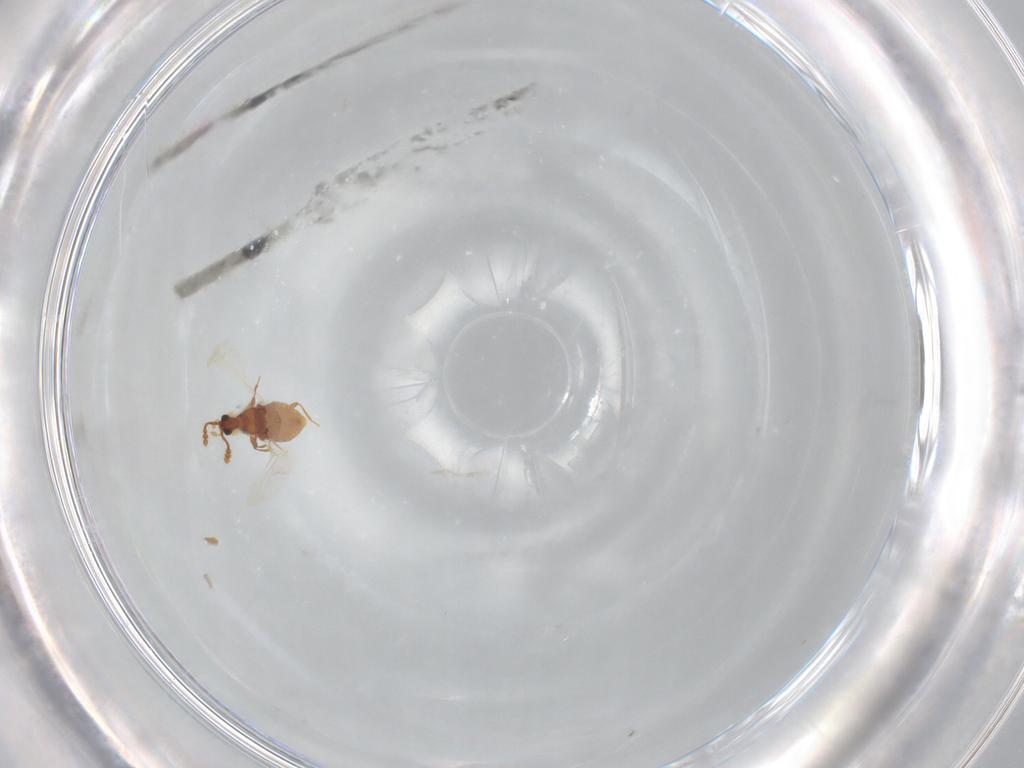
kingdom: Animalia
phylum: Arthropoda
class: Insecta
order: Coleoptera
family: Staphylinidae
